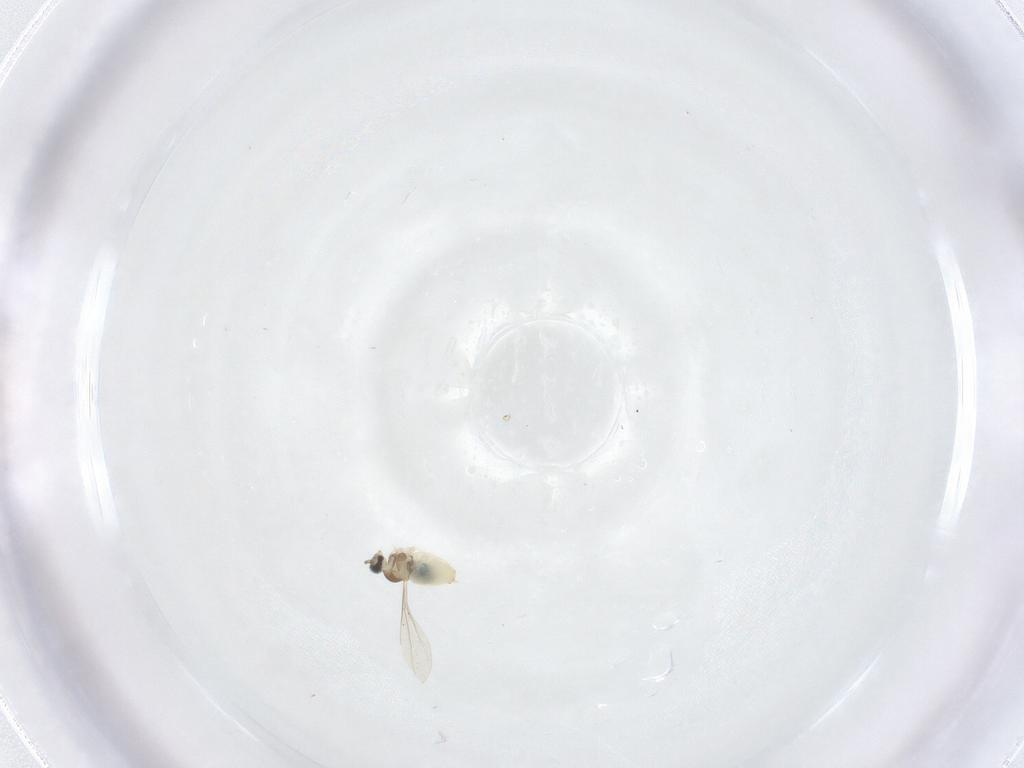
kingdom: Animalia
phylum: Arthropoda
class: Insecta
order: Diptera
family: Cecidomyiidae
